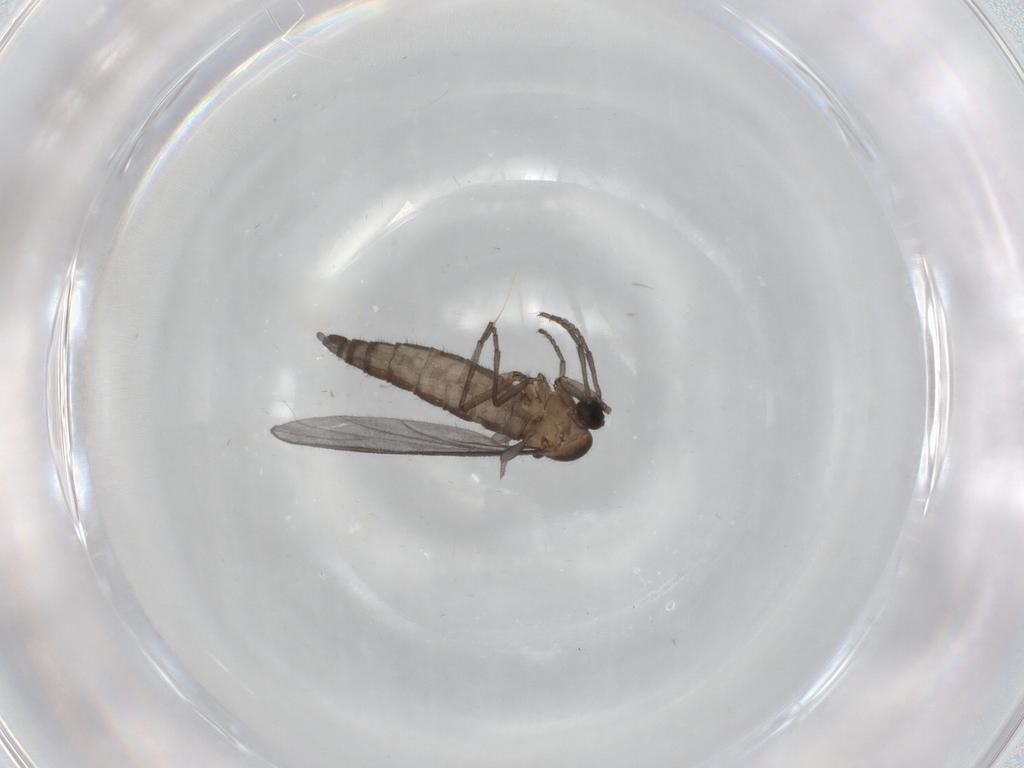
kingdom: Animalia
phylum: Arthropoda
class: Insecta
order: Diptera
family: Sciaridae
